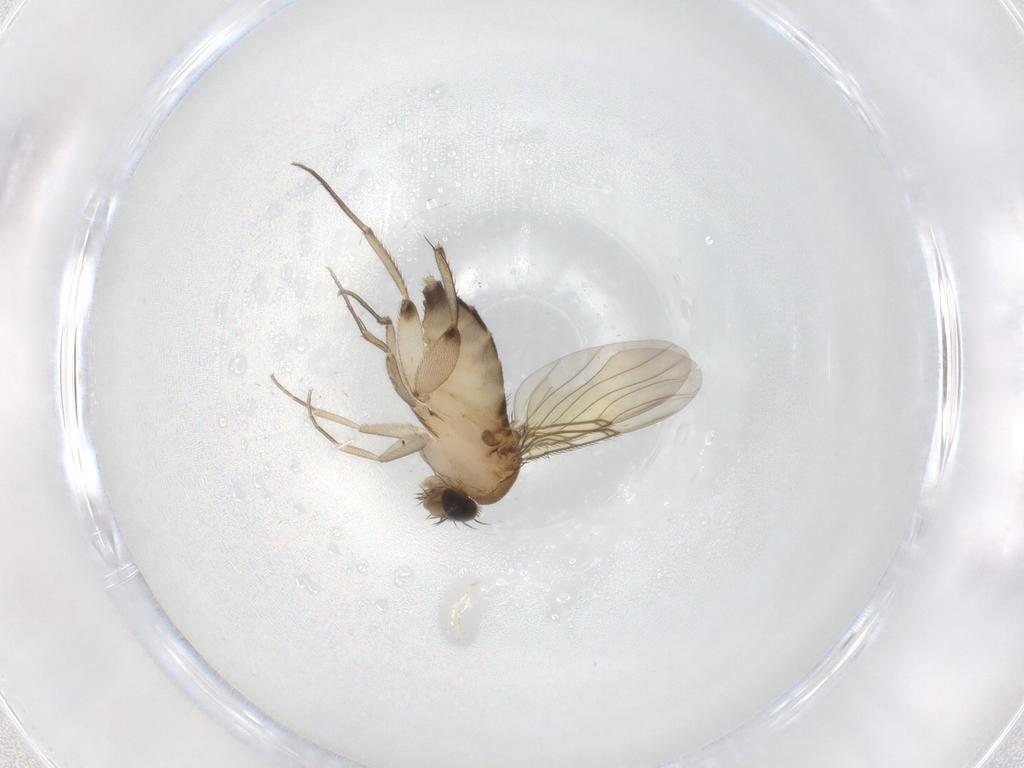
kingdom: Animalia
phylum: Arthropoda
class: Insecta
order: Diptera
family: Phoridae
